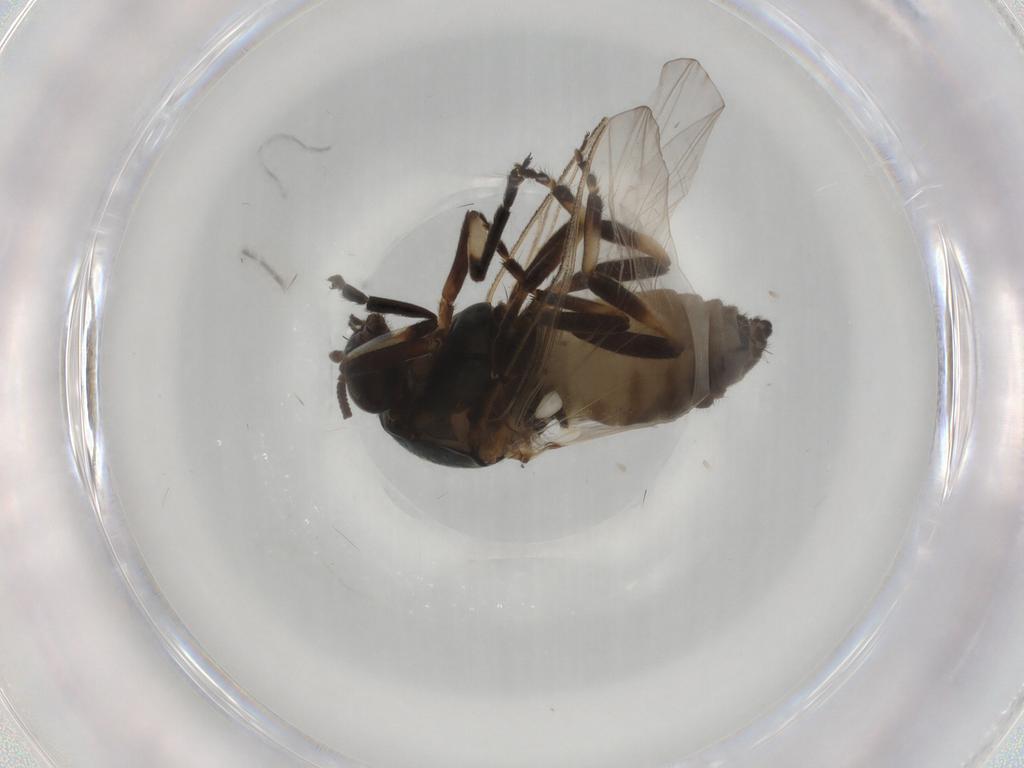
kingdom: Animalia
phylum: Arthropoda
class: Insecta
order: Diptera
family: Simuliidae
